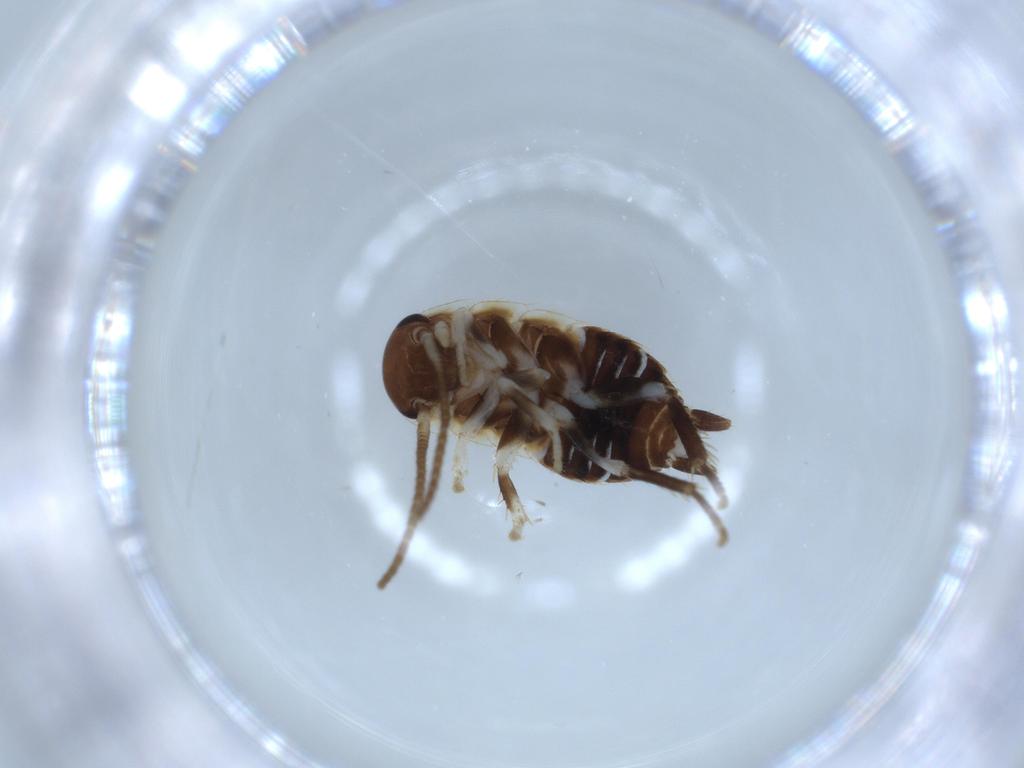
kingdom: Animalia
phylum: Arthropoda
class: Insecta
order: Blattodea
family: Ectobiidae
